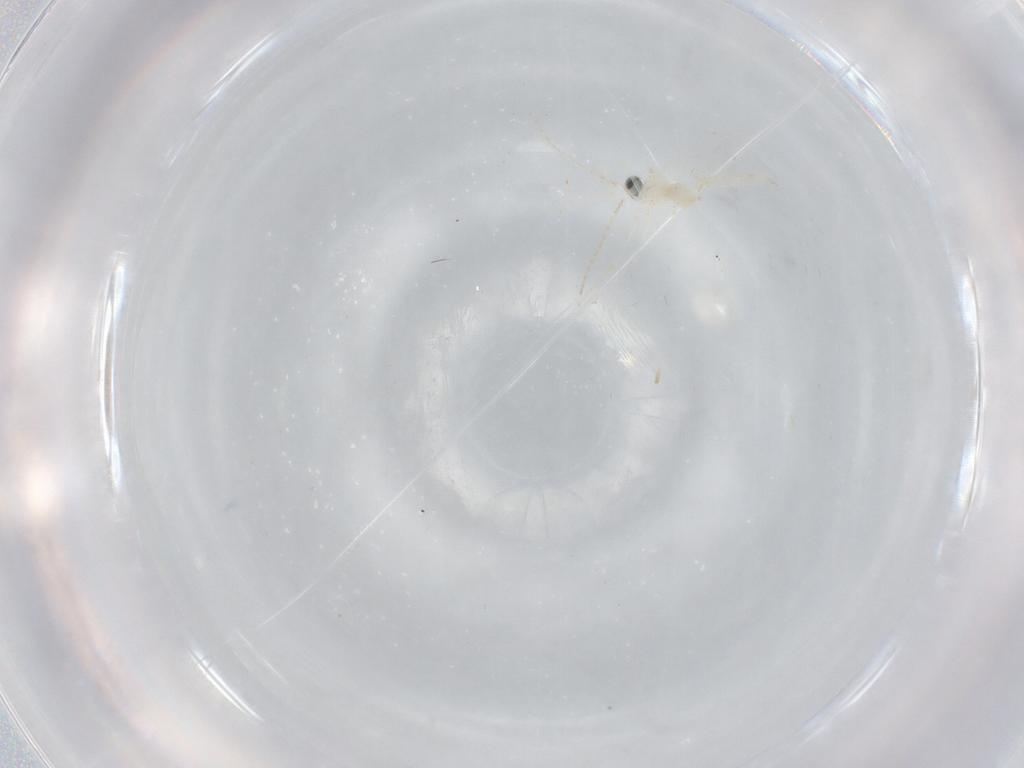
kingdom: Animalia
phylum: Arthropoda
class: Insecta
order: Diptera
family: Cecidomyiidae
